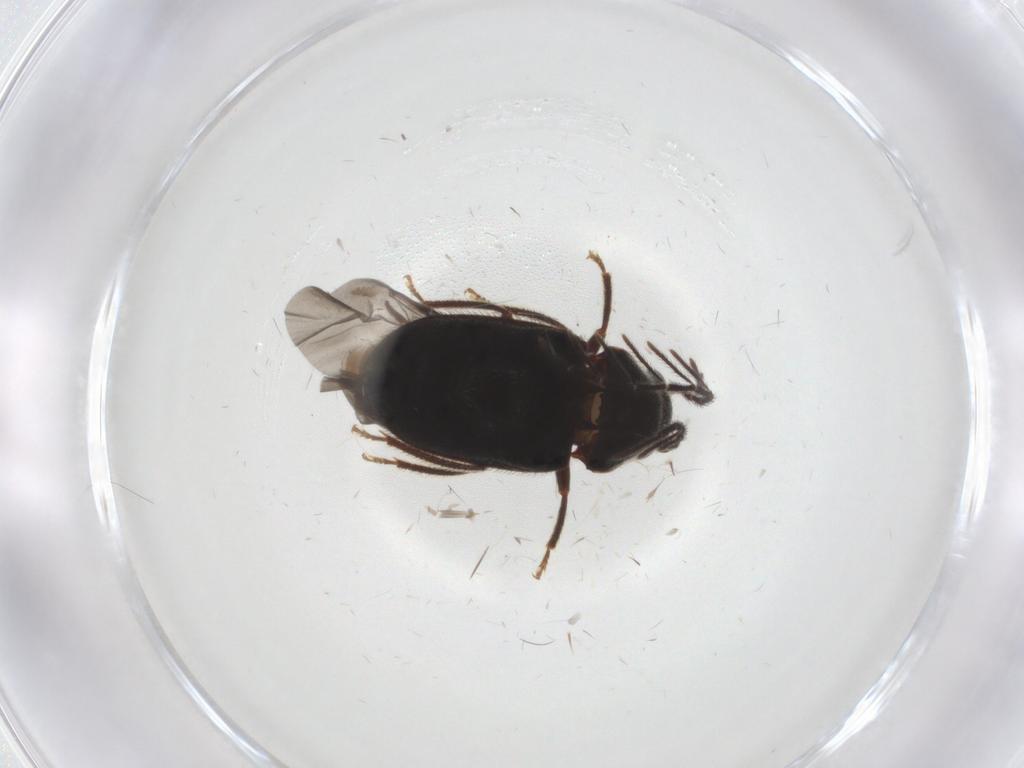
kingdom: Animalia
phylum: Arthropoda
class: Insecta
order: Coleoptera
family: Ptilodactylidae
